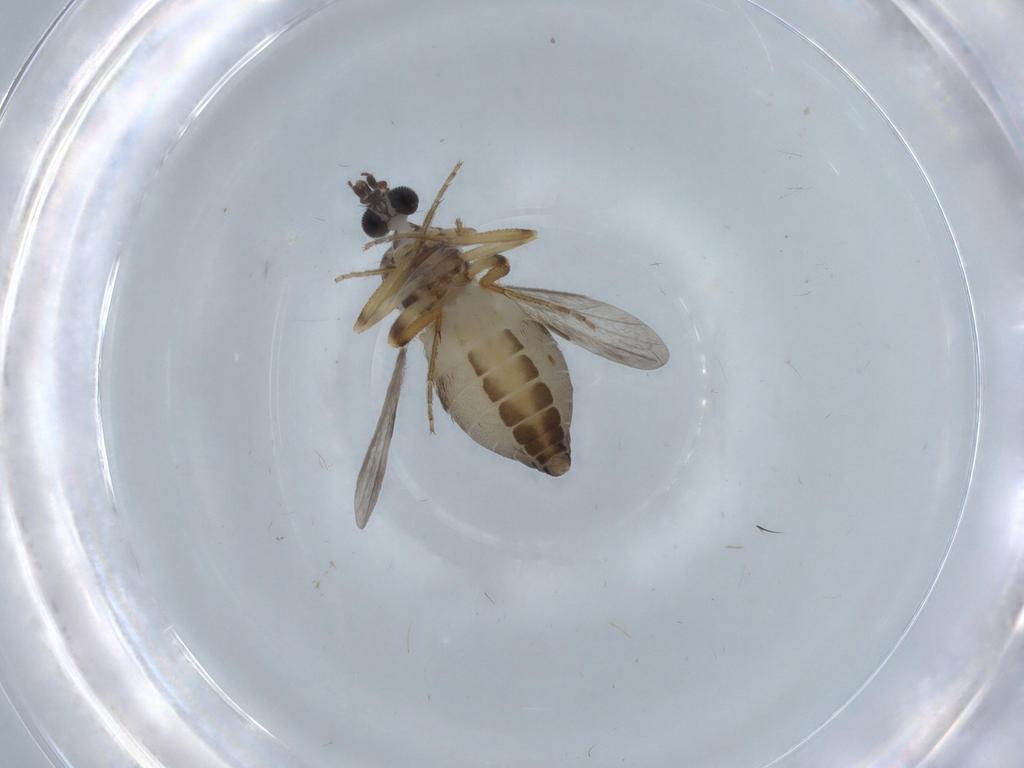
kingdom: Animalia
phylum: Arthropoda
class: Insecta
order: Diptera
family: Ceratopogonidae
